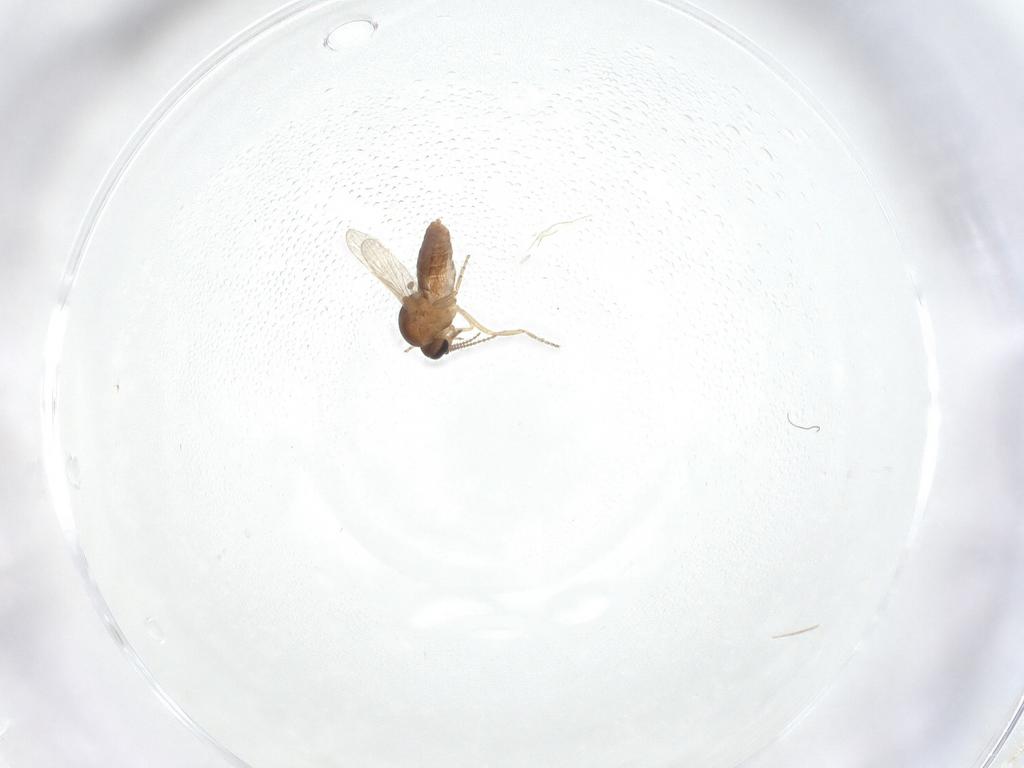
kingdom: Animalia
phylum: Arthropoda
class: Insecta
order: Diptera
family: Ceratopogonidae
